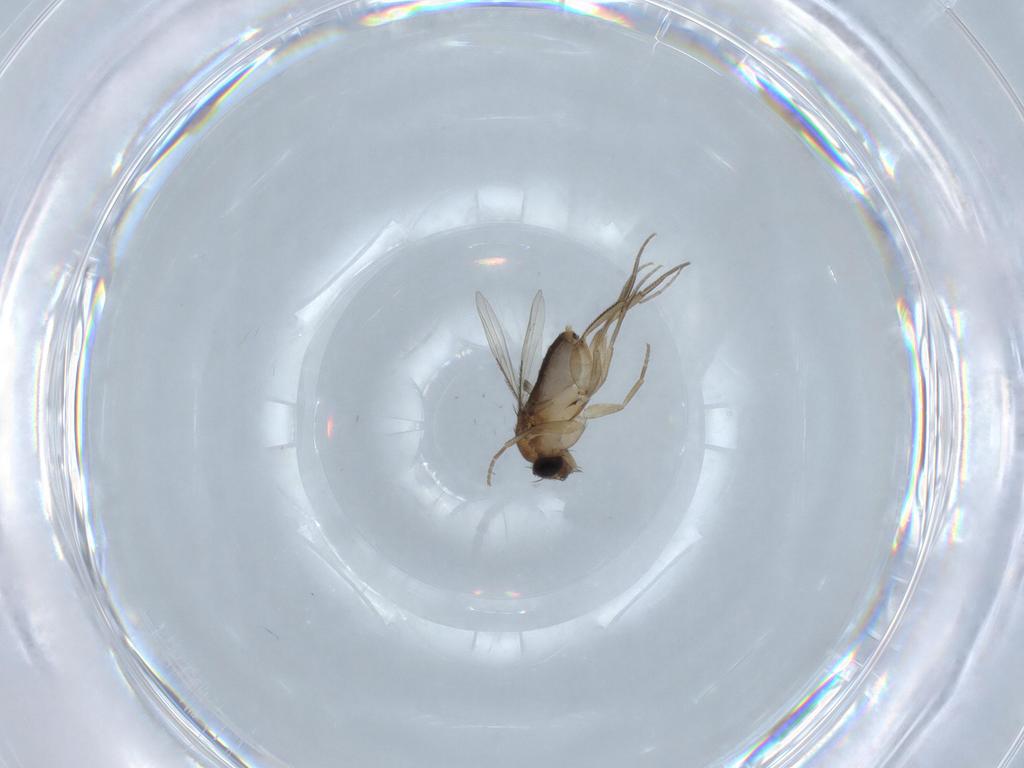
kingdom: Animalia
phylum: Arthropoda
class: Insecta
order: Diptera
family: Phoridae
